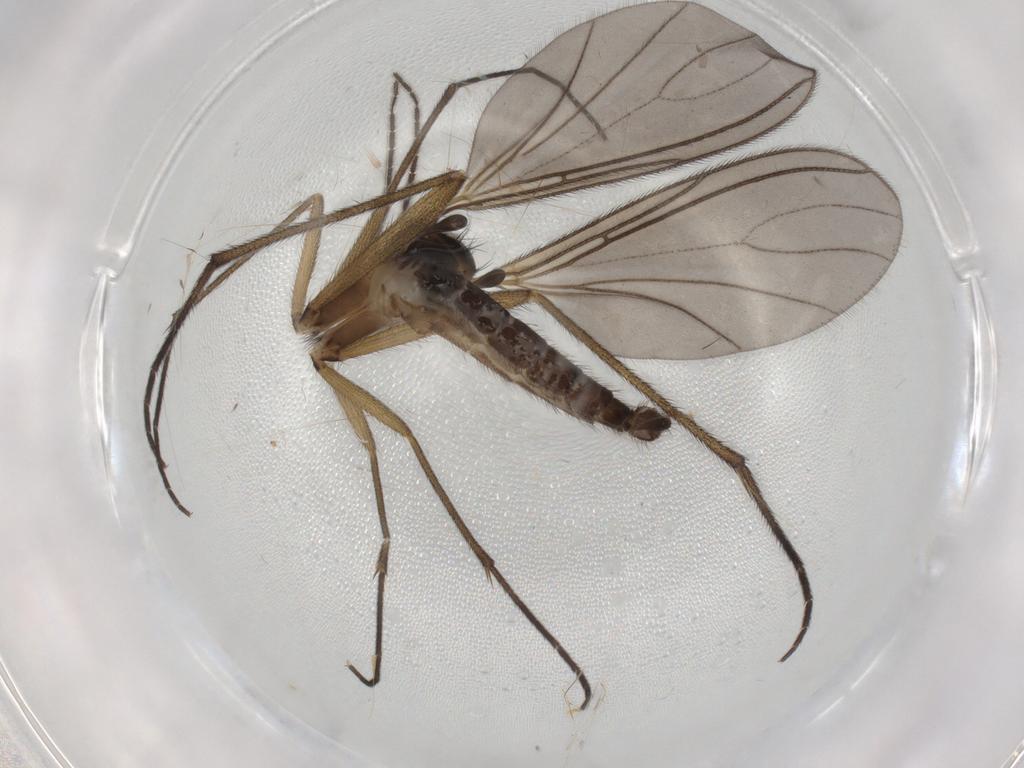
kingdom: Animalia
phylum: Arthropoda
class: Insecta
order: Diptera
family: Sciaridae
